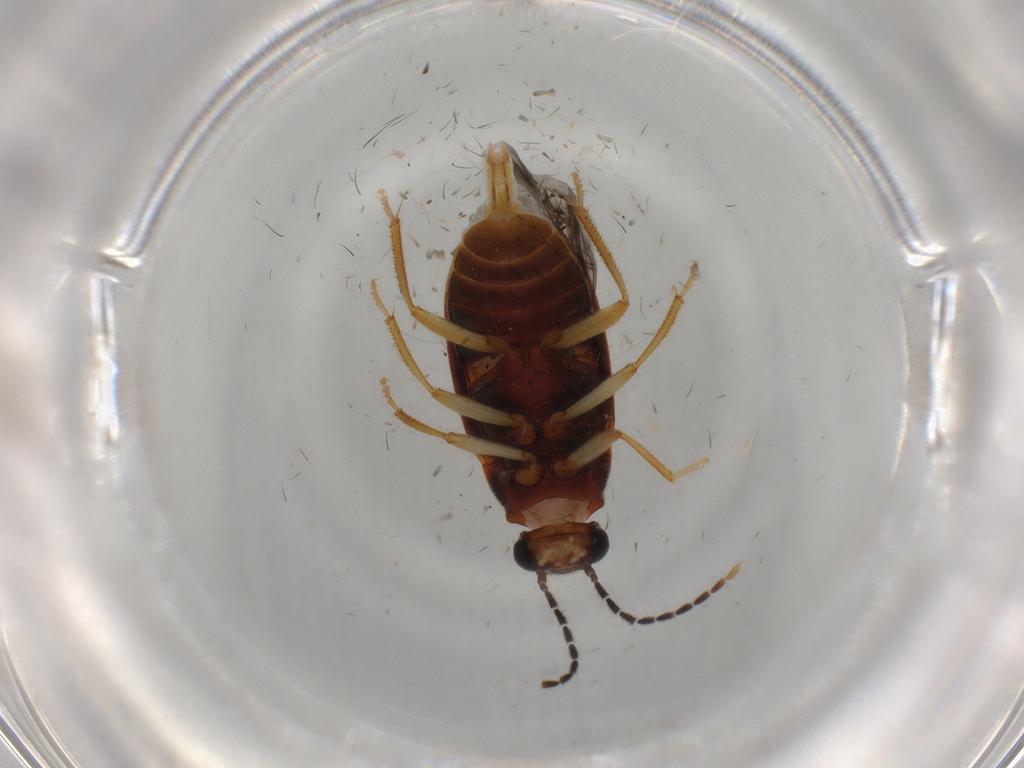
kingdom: Animalia
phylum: Arthropoda
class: Insecta
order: Coleoptera
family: Ptilodactylidae
